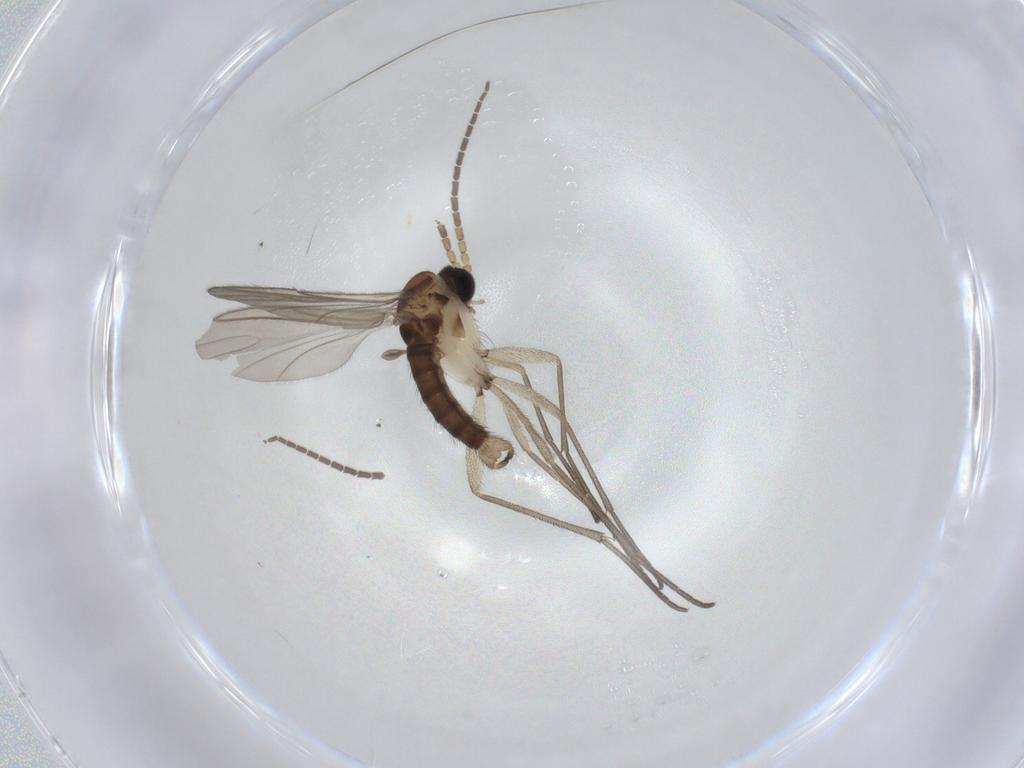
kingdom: Animalia
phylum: Arthropoda
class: Insecta
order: Diptera
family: Sciaridae
